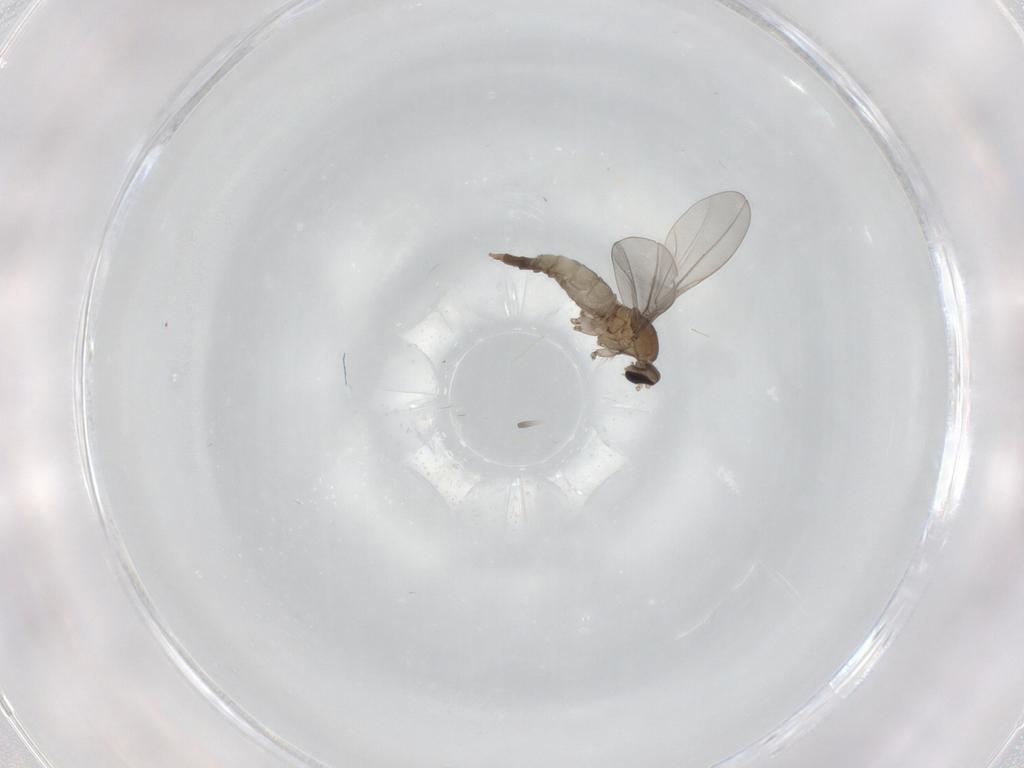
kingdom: Animalia
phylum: Arthropoda
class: Insecta
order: Diptera
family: Cecidomyiidae
